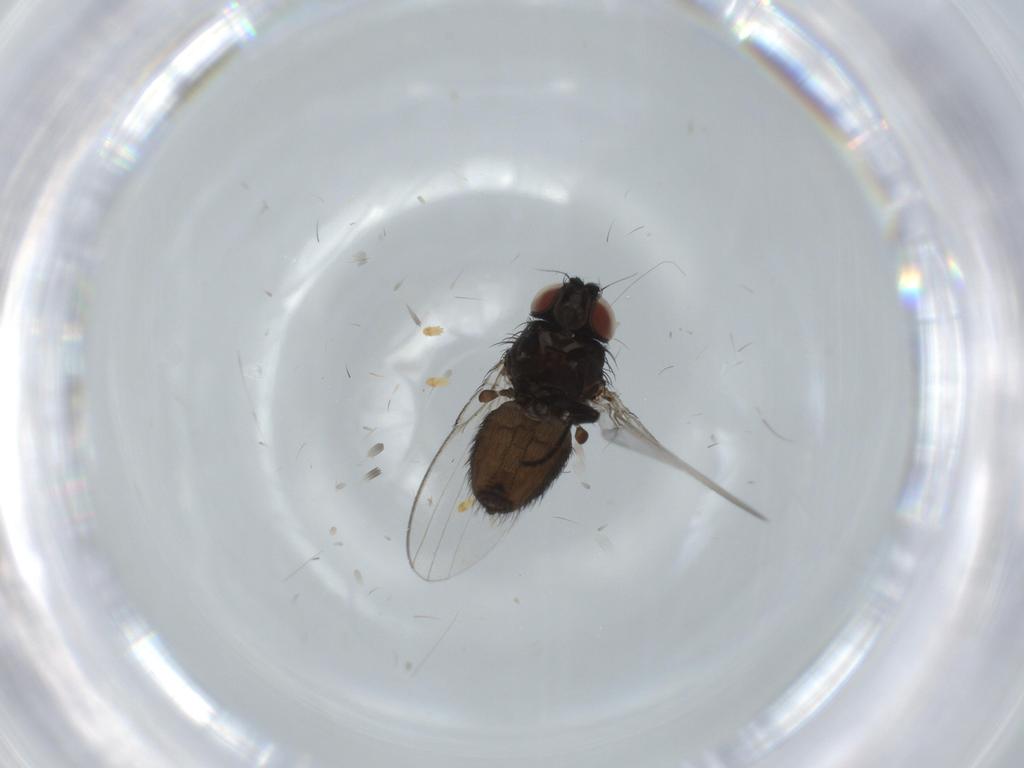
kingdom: Animalia
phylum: Arthropoda
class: Insecta
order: Diptera
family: Milichiidae
